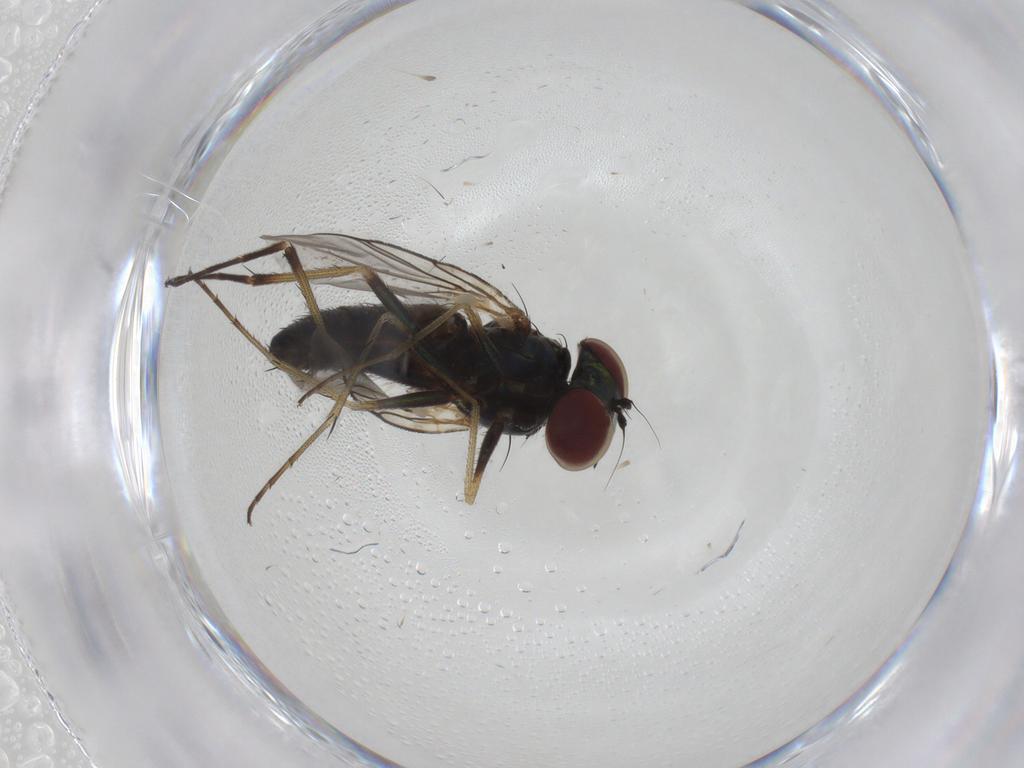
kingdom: Animalia
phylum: Arthropoda
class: Insecta
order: Diptera
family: Dolichopodidae
